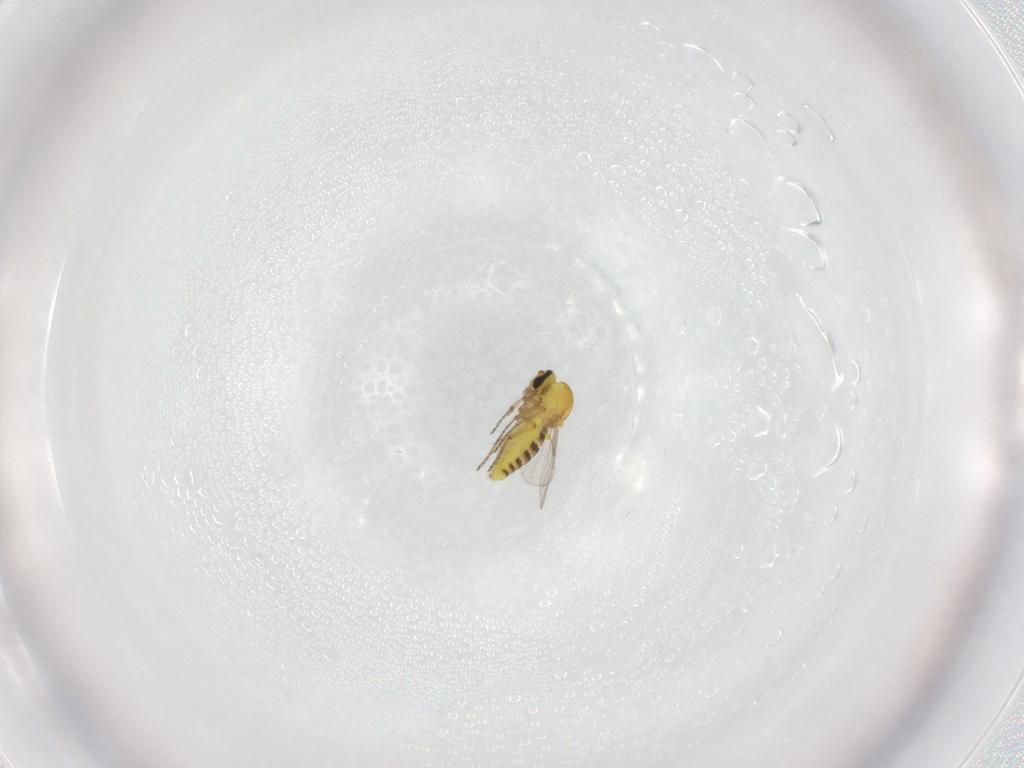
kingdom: Animalia
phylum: Arthropoda
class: Insecta
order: Diptera
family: Ceratopogonidae
